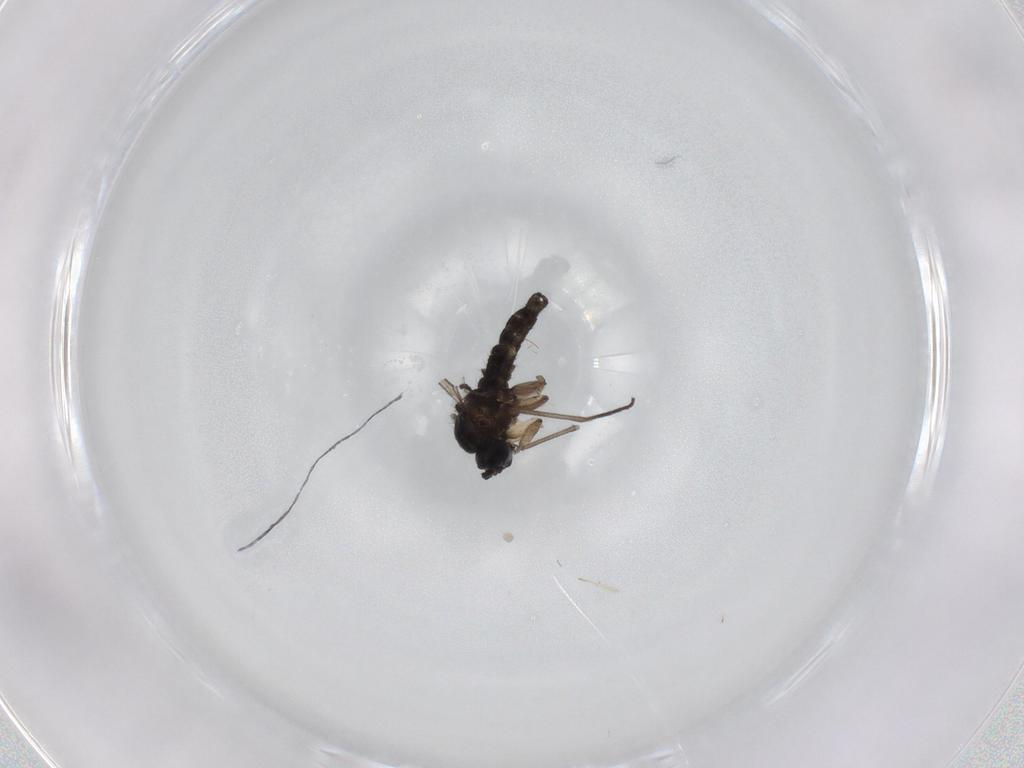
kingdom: Animalia
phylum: Arthropoda
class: Insecta
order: Diptera
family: Sciaridae
